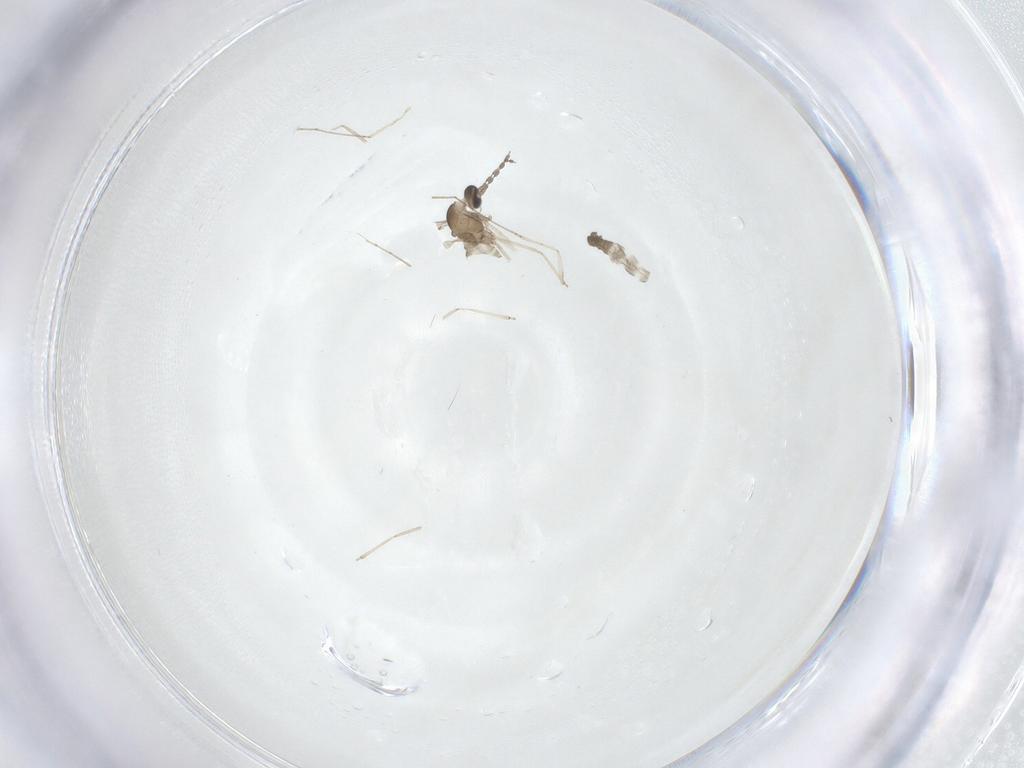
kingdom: Animalia
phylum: Arthropoda
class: Insecta
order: Diptera
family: Cecidomyiidae
